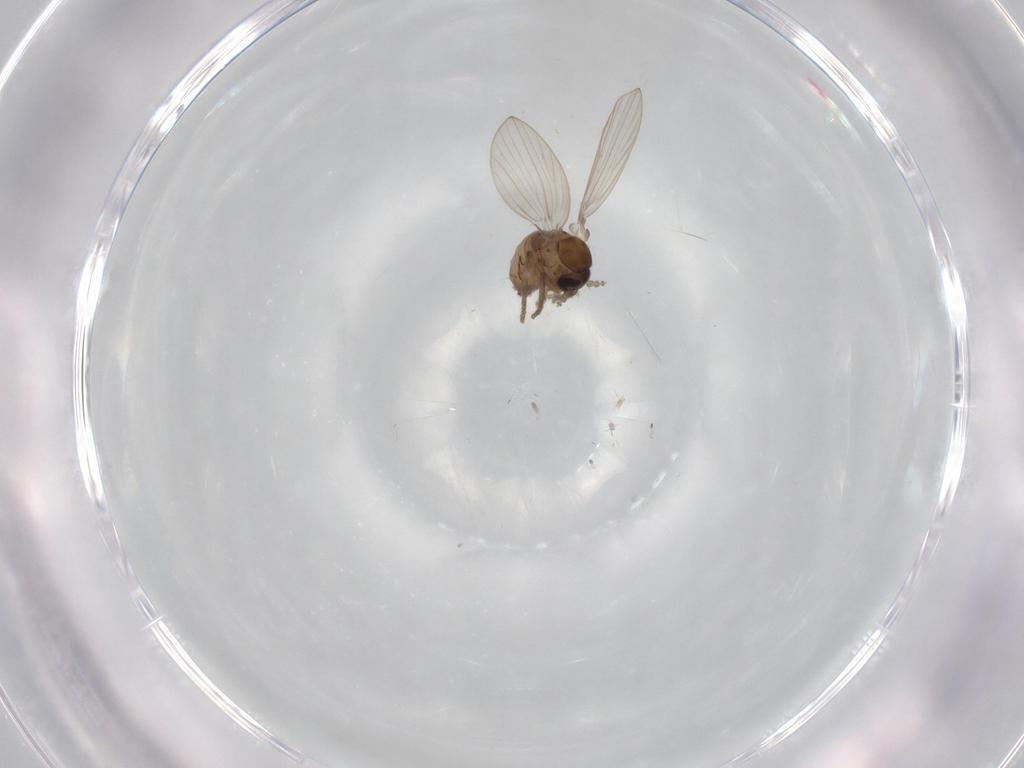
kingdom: Animalia
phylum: Arthropoda
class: Insecta
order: Diptera
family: Psychodidae
